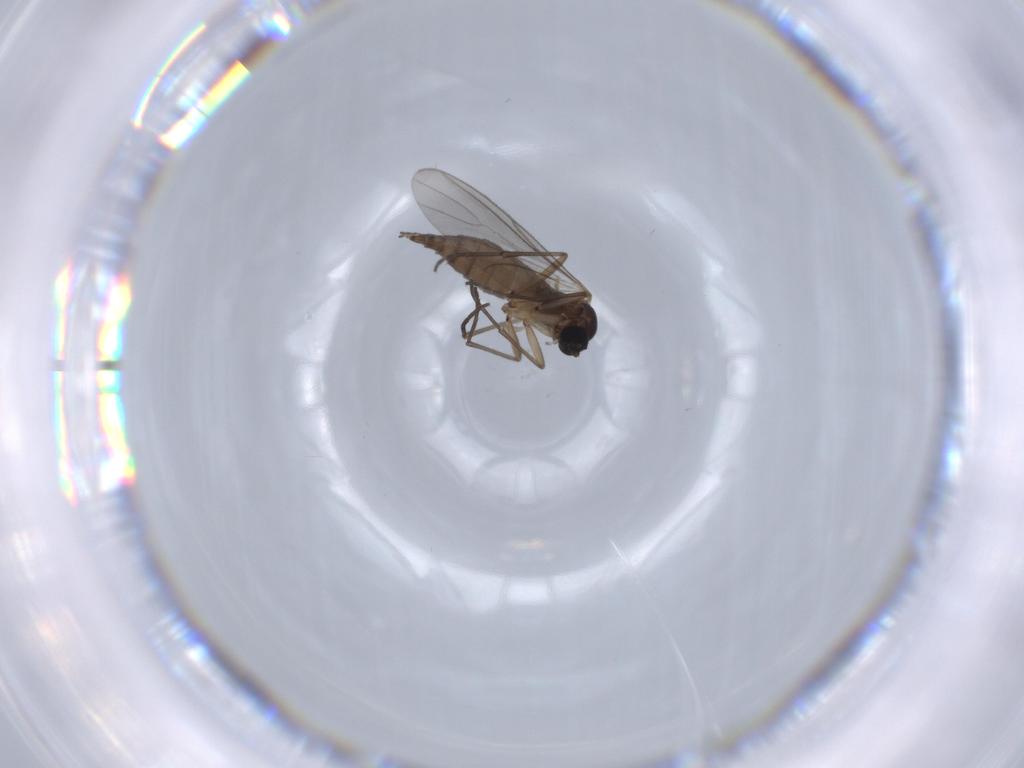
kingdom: Animalia
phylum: Arthropoda
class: Insecta
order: Diptera
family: Sciaridae
